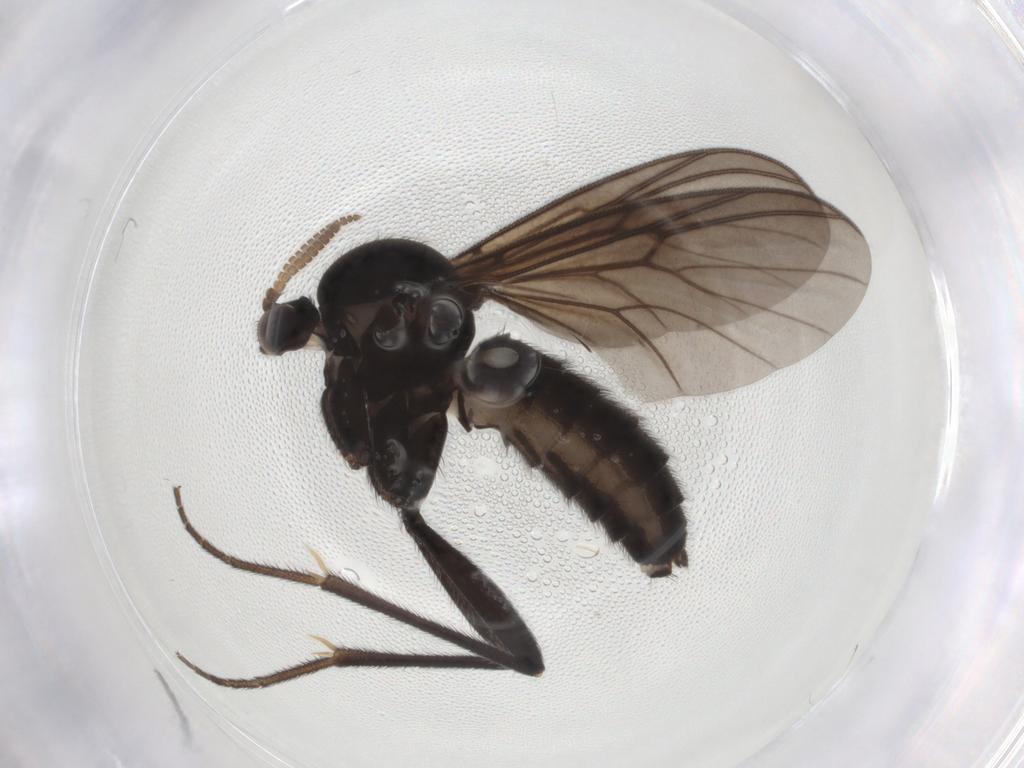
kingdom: Animalia
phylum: Arthropoda
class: Insecta
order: Diptera
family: Mycetophilidae
